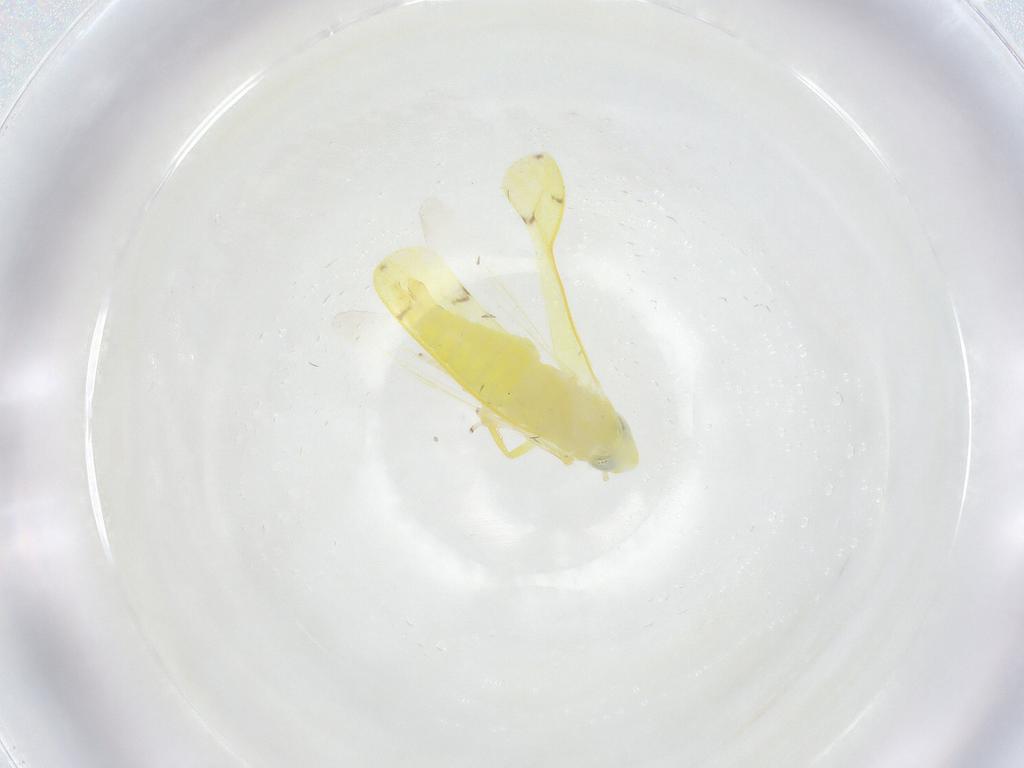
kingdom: Animalia
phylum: Arthropoda
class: Insecta
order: Hemiptera
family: Cicadellidae
